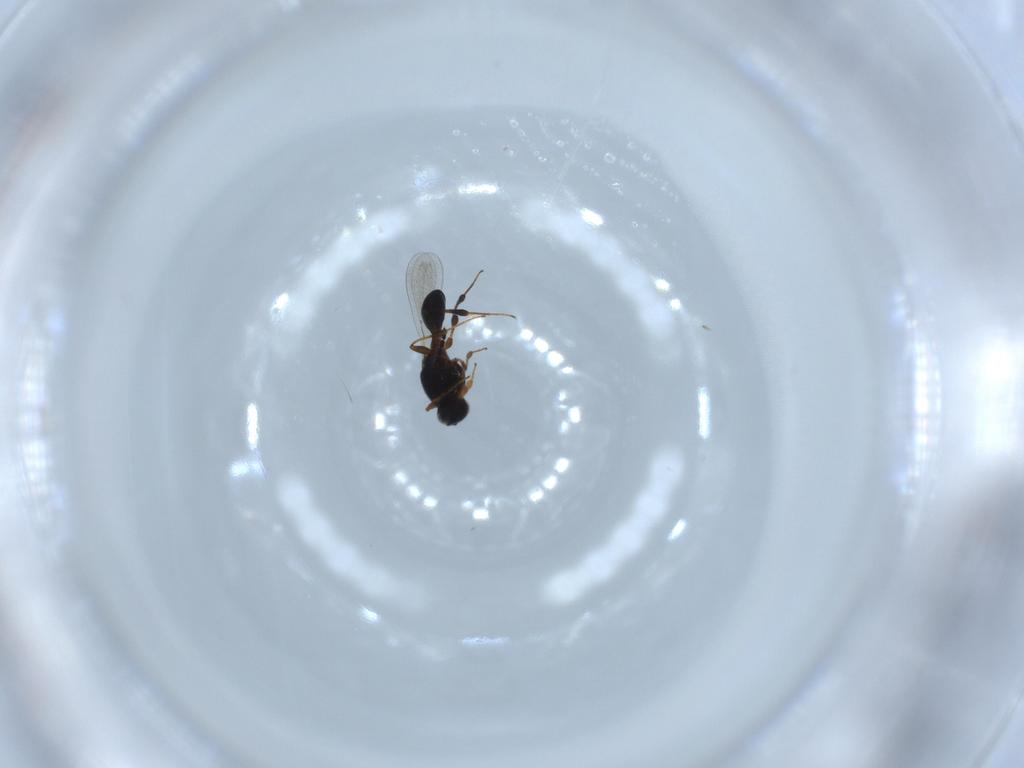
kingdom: Animalia
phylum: Arthropoda
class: Insecta
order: Hymenoptera
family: Platygastridae
